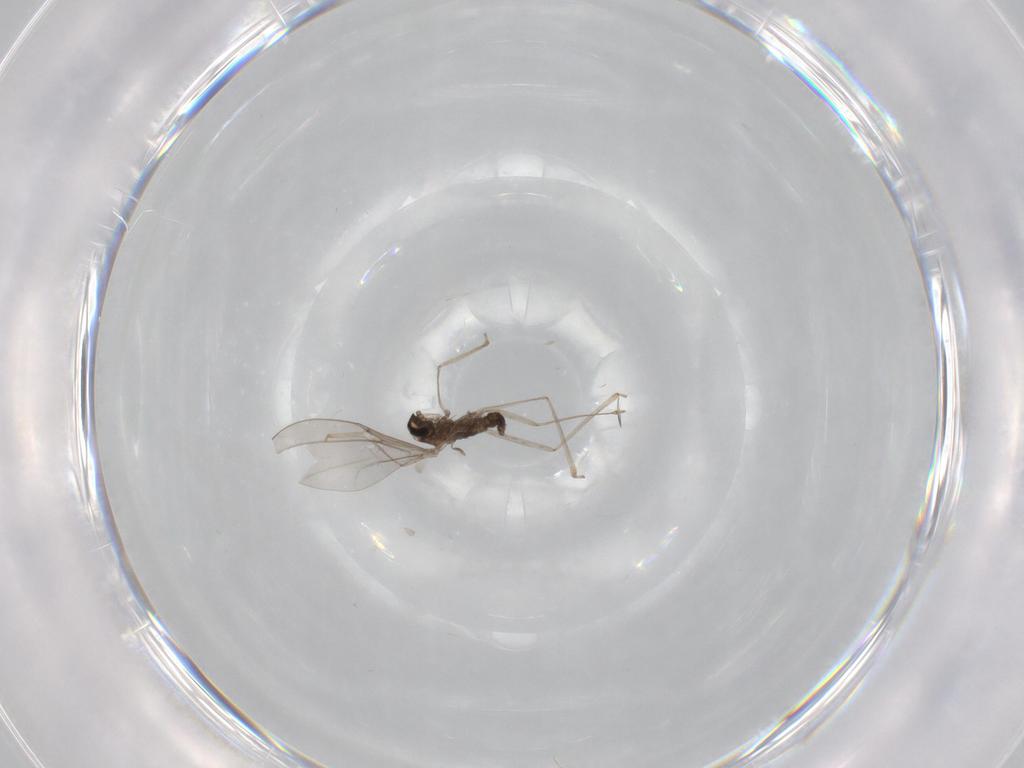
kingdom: Animalia
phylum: Arthropoda
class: Insecta
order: Diptera
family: Cecidomyiidae
